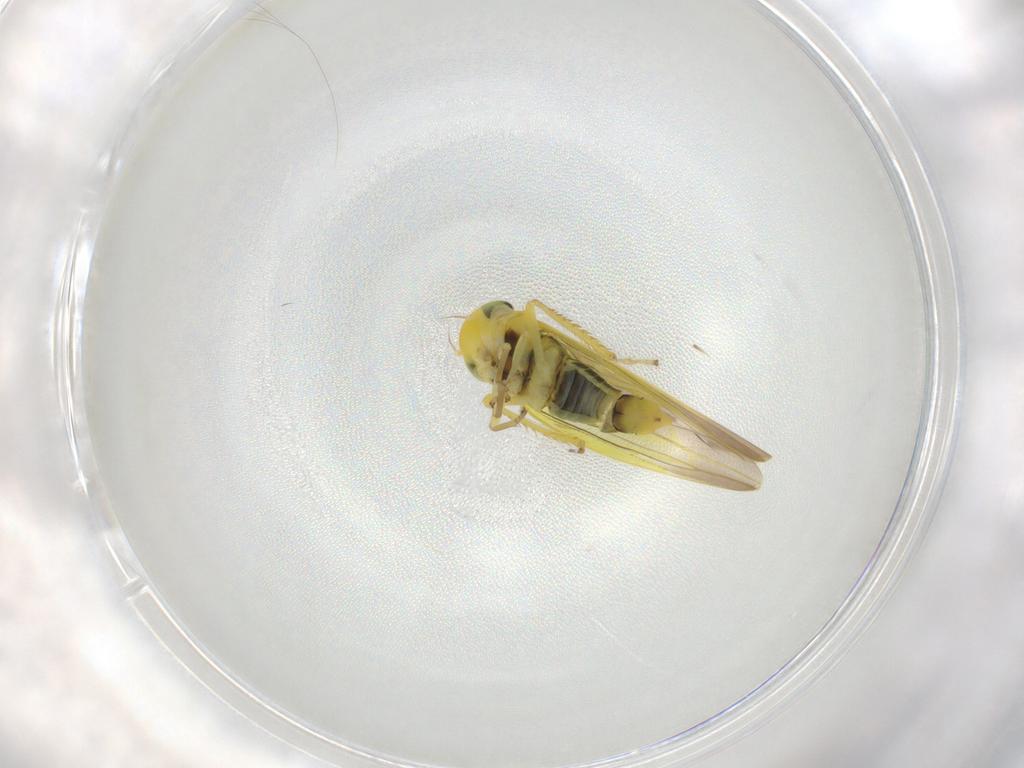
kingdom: Animalia
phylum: Arthropoda
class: Insecta
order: Hemiptera
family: Cicadellidae
